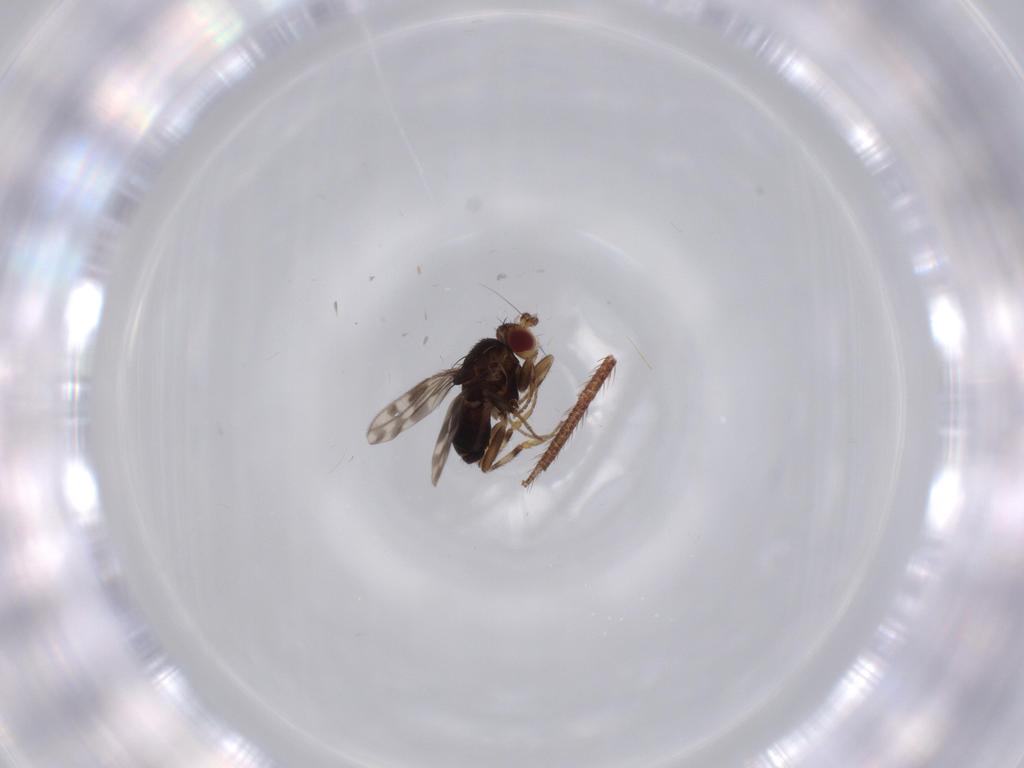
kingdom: Animalia
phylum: Arthropoda
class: Insecta
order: Diptera
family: Sphaeroceridae
